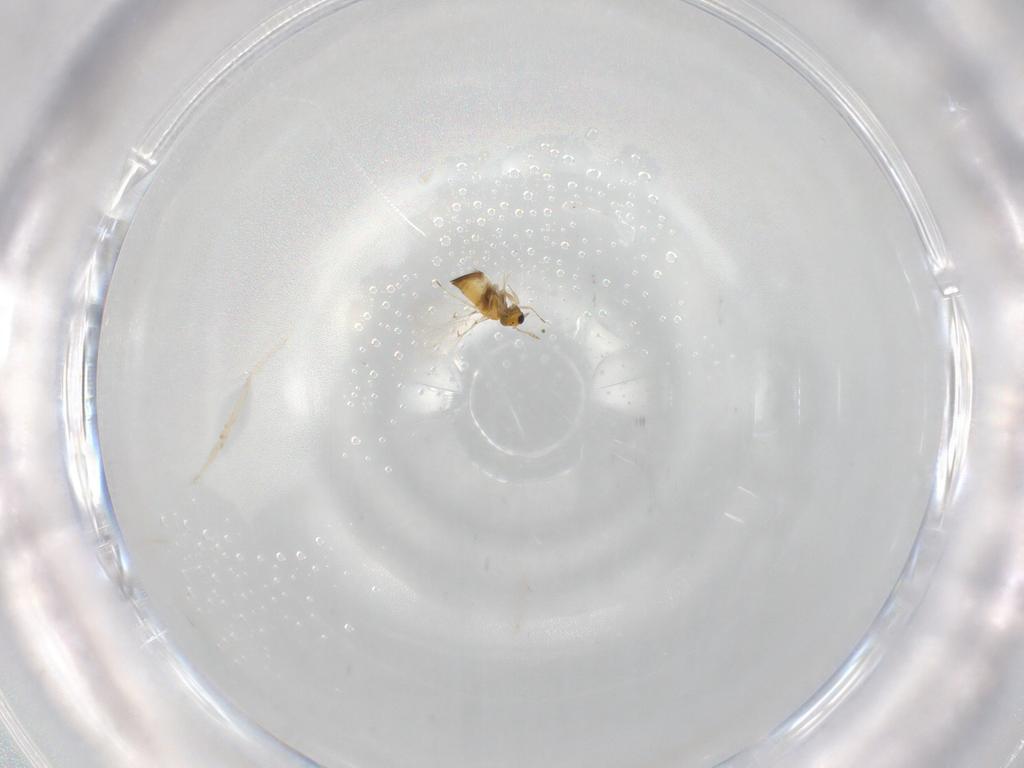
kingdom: Animalia
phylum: Arthropoda
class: Insecta
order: Hymenoptera
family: Trichogrammatidae
